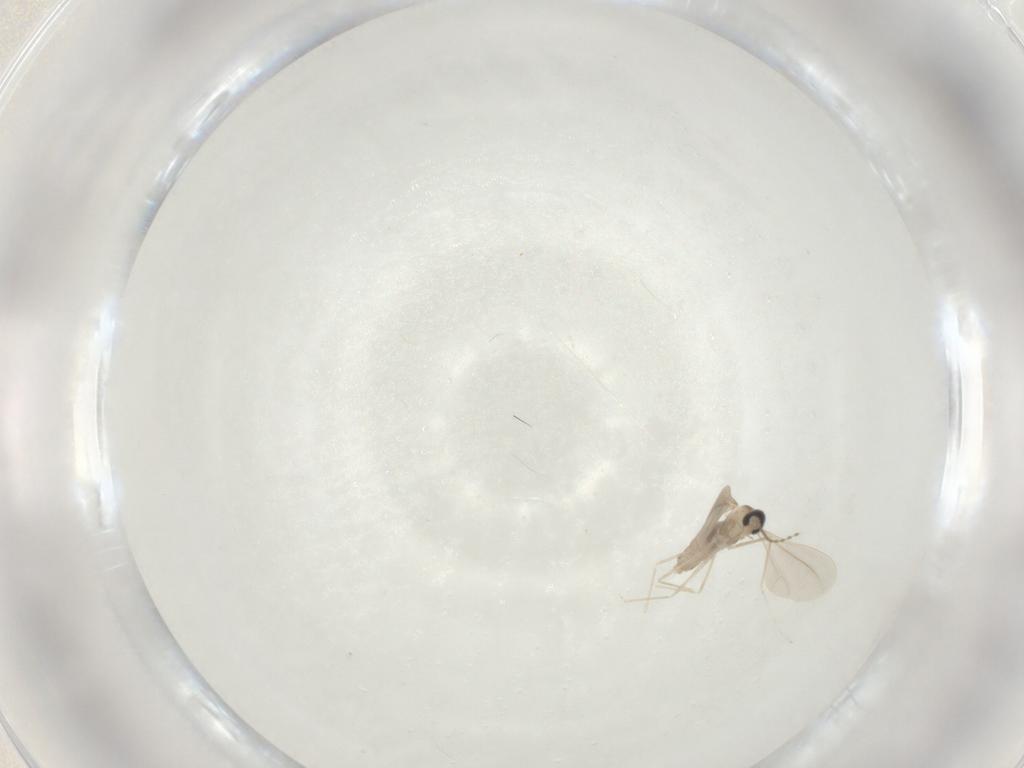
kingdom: Animalia
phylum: Arthropoda
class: Insecta
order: Diptera
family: Cecidomyiidae
